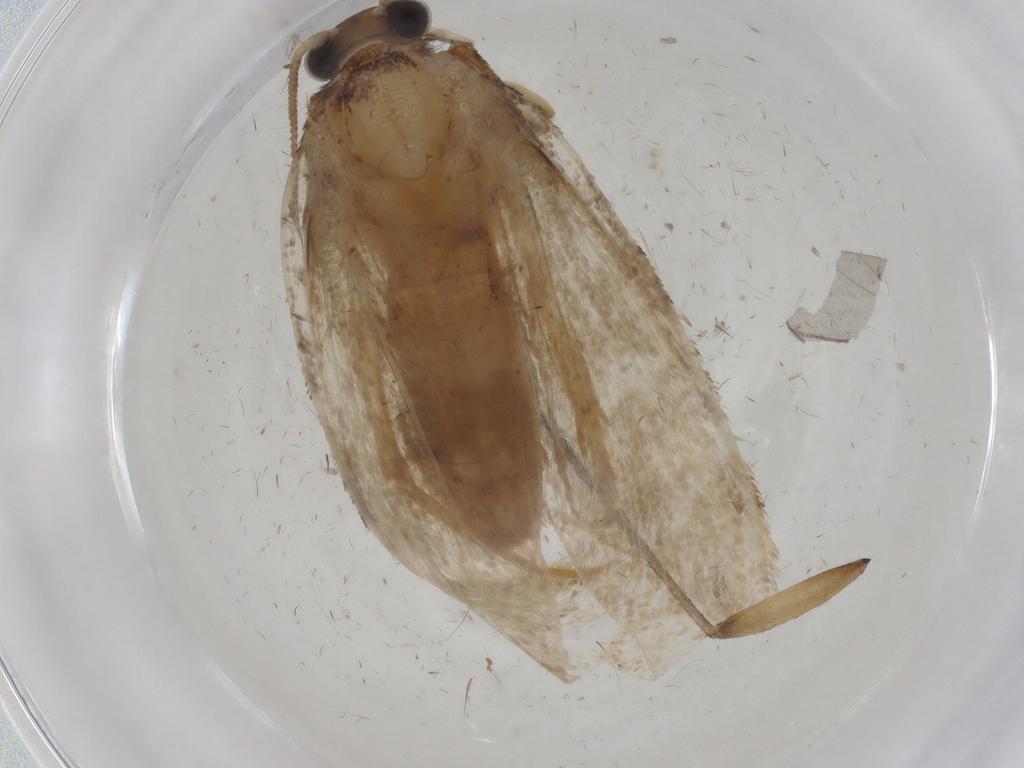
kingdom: Animalia
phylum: Arthropoda
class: Insecta
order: Lepidoptera
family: Tineidae
